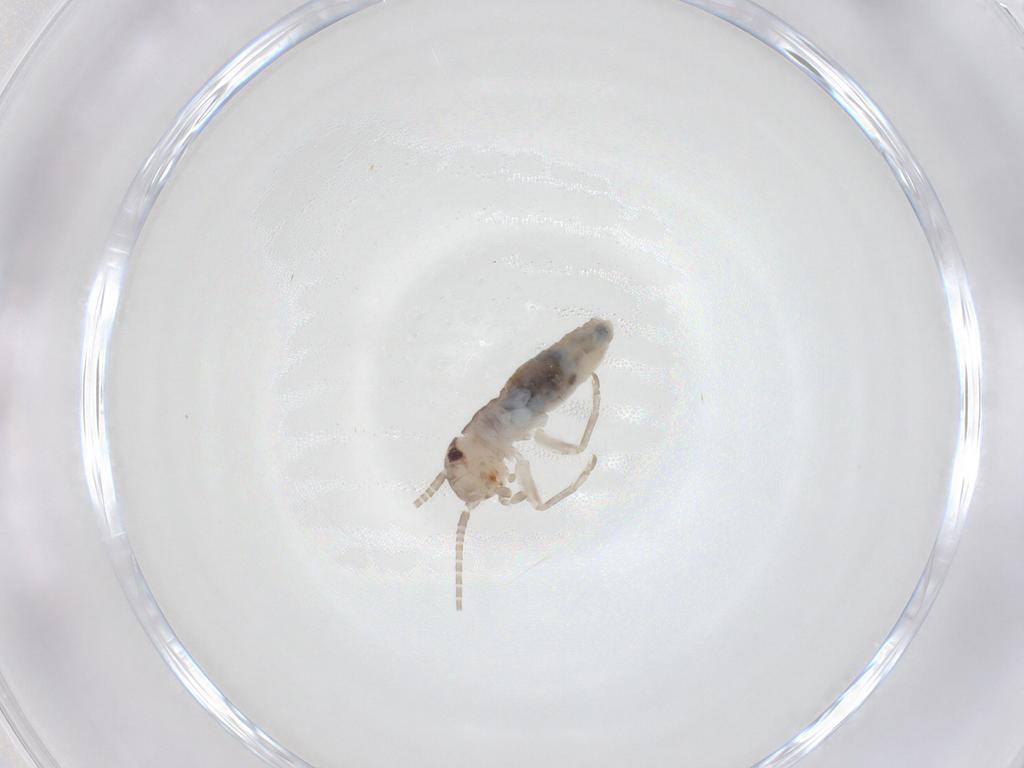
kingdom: Animalia
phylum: Arthropoda
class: Insecta
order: Orthoptera
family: Gryllidae
